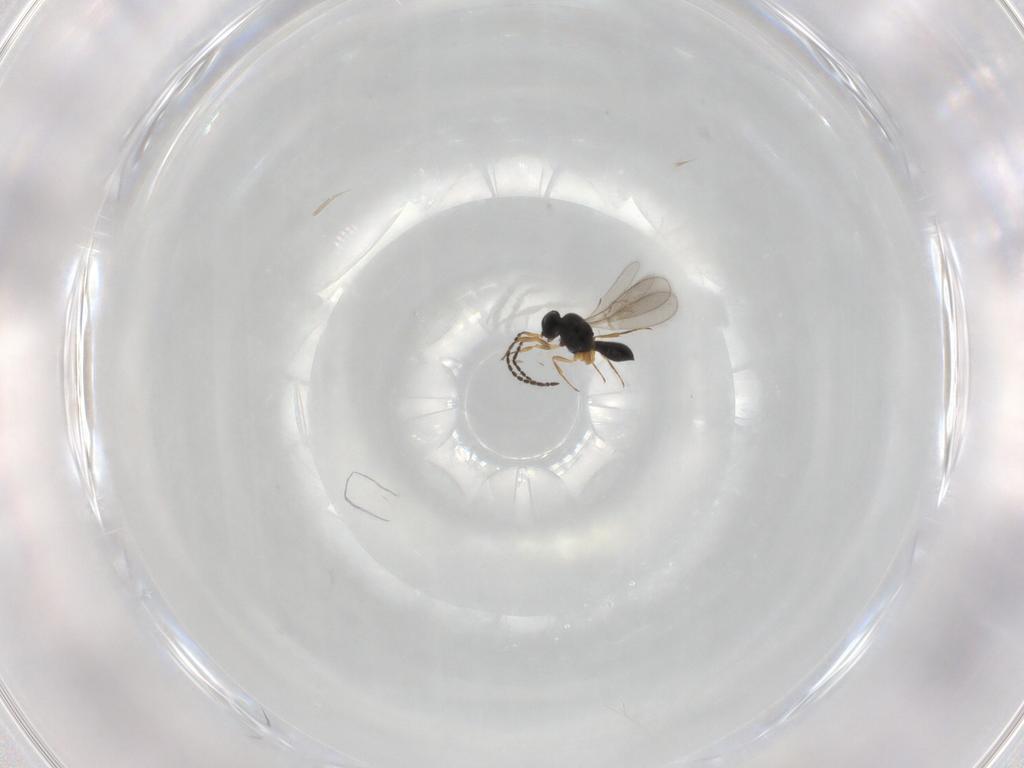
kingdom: Animalia
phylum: Arthropoda
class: Insecta
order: Hymenoptera
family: Scelionidae
